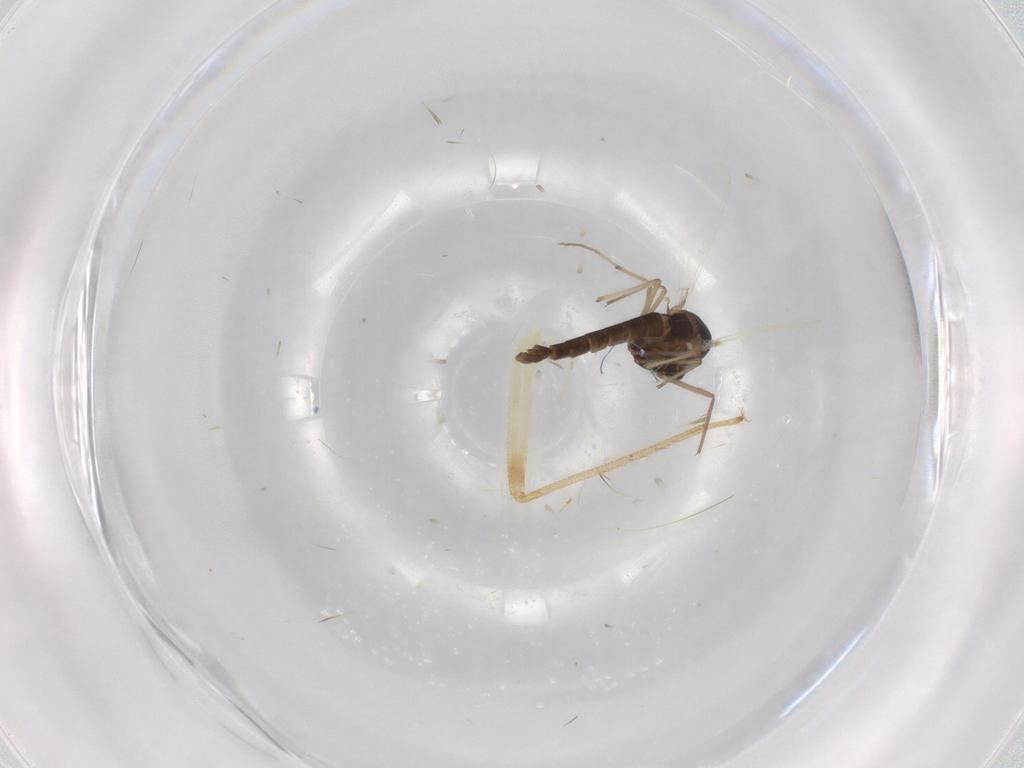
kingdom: Animalia
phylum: Arthropoda
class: Insecta
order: Diptera
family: Chironomidae
